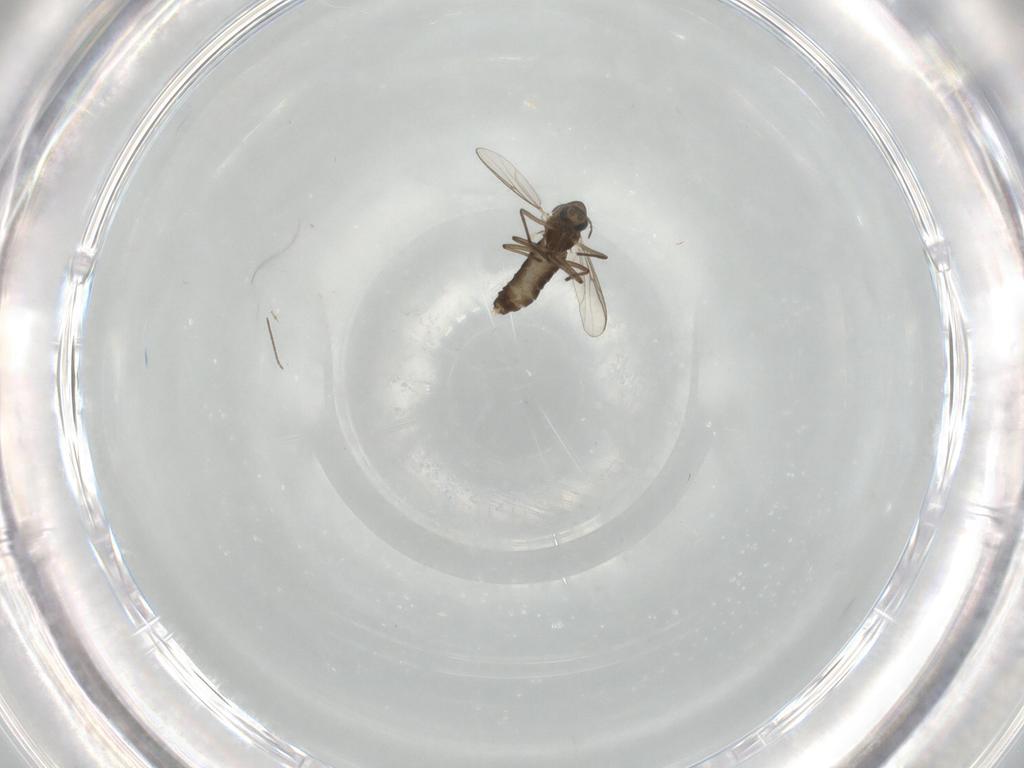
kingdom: Animalia
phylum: Arthropoda
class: Insecta
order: Diptera
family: Chironomidae
